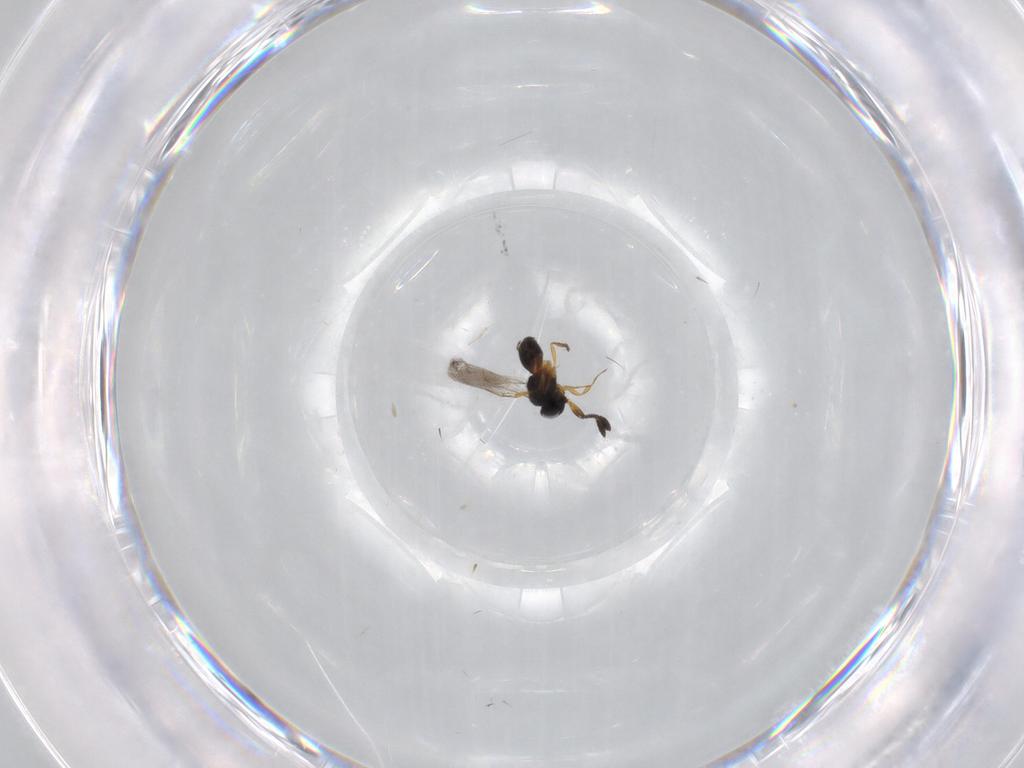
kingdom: Animalia
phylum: Arthropoda
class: Insecta
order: Hymenoptera
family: Scelionidae
